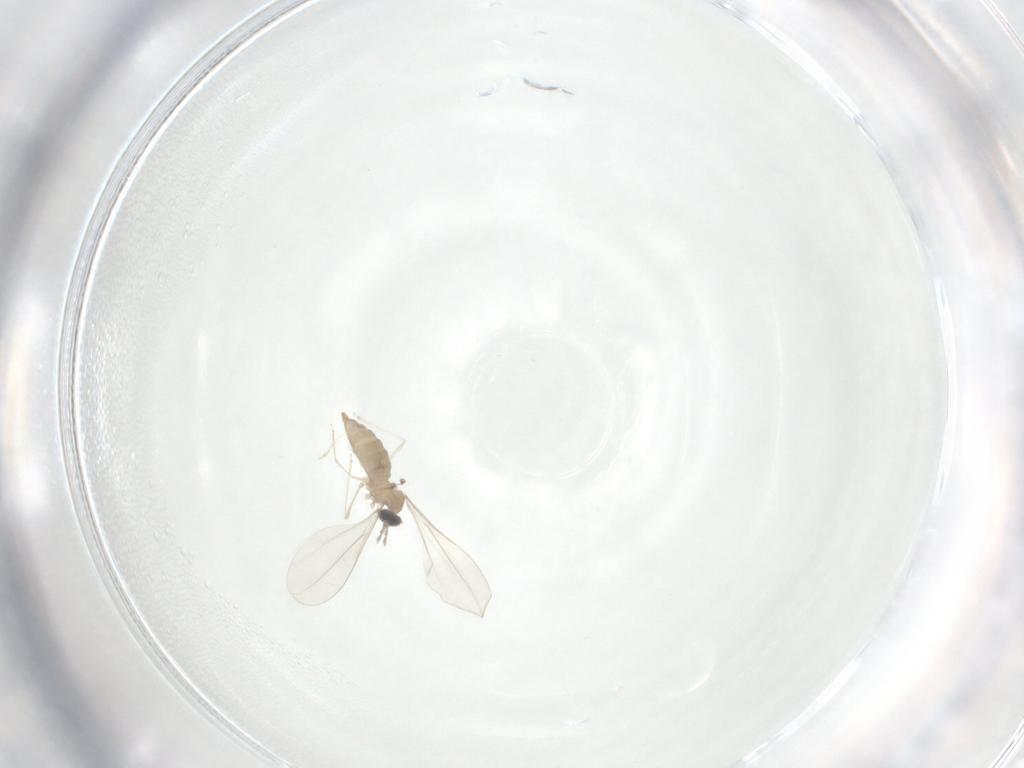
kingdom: Animalia
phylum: Arthropoda
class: Insecta
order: Diptera
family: Cecidomyiidae
